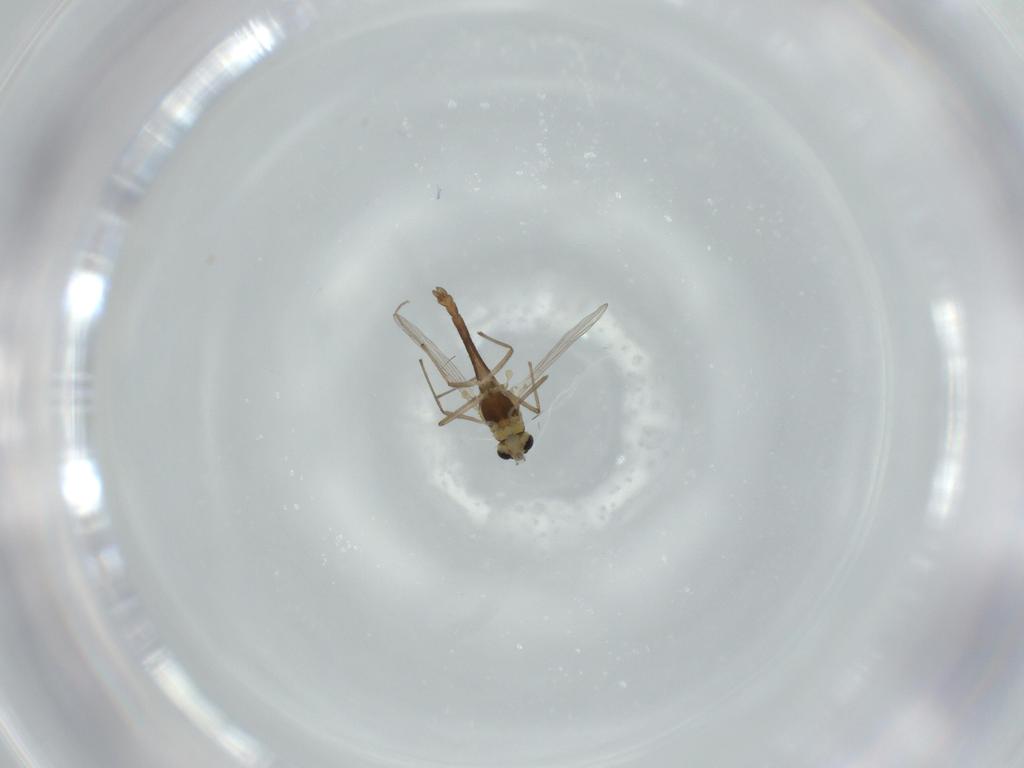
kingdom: Animalia
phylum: Arthropoda
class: Insecta
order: Diptera
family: Chironomidae
